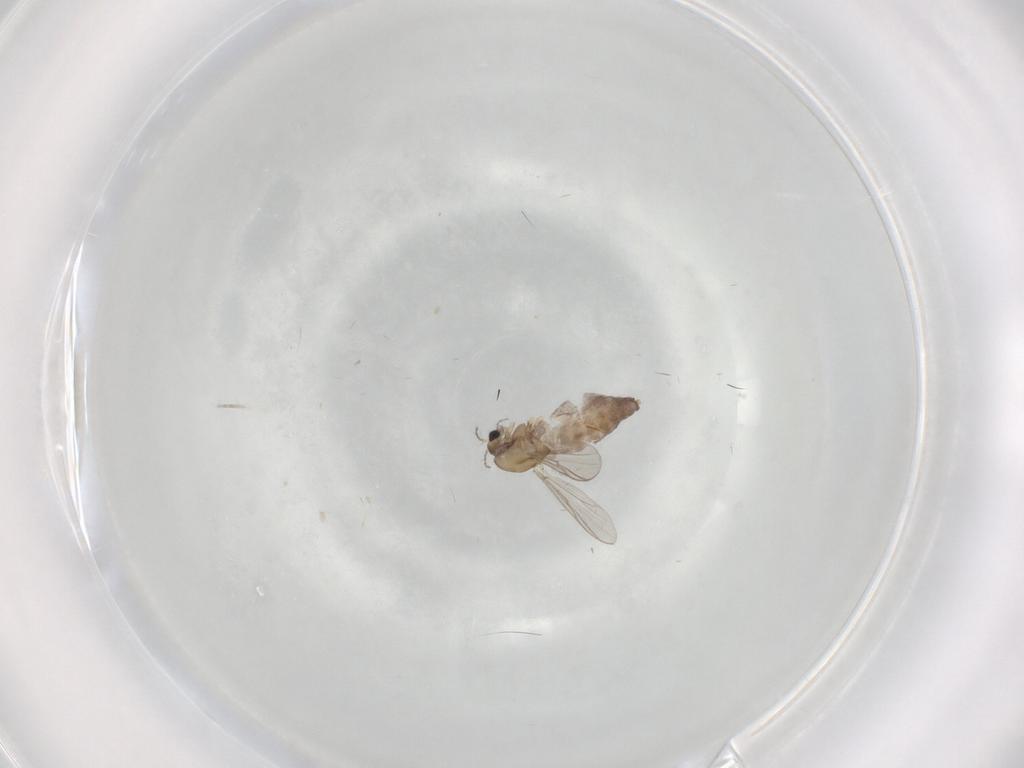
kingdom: Animalia
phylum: Arthropoda
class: Insecta
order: Diptera
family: Chironomidae
